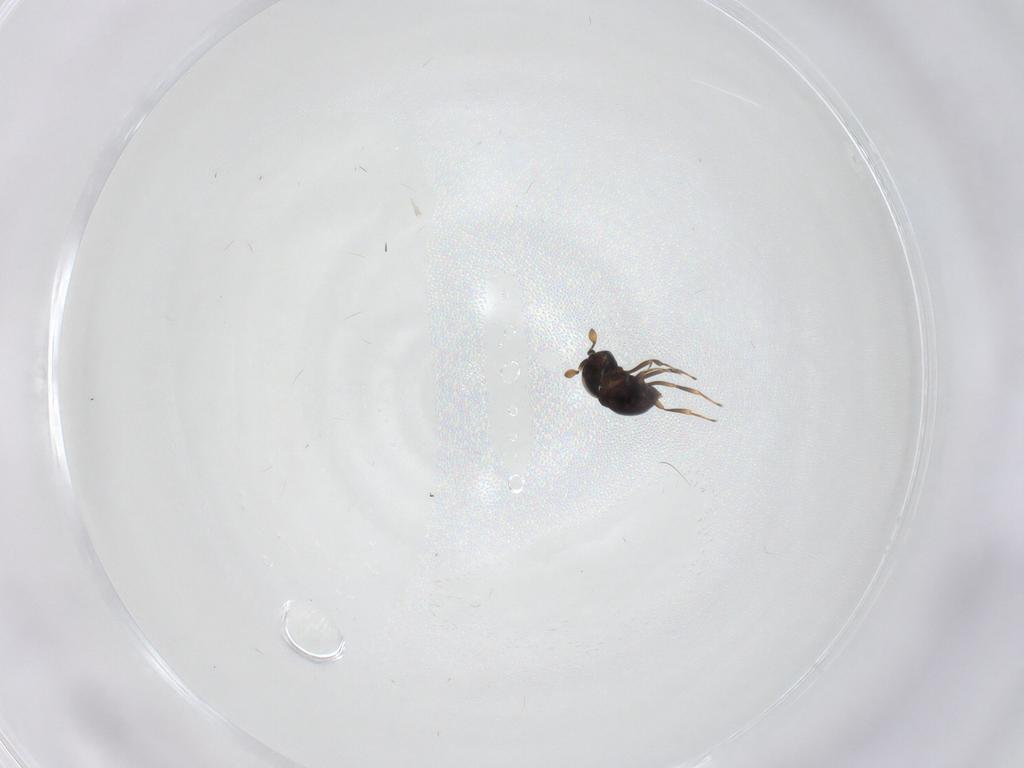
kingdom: Animalia
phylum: Arthropoda
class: Insecta
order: Hymenoptera
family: Scelionidae
